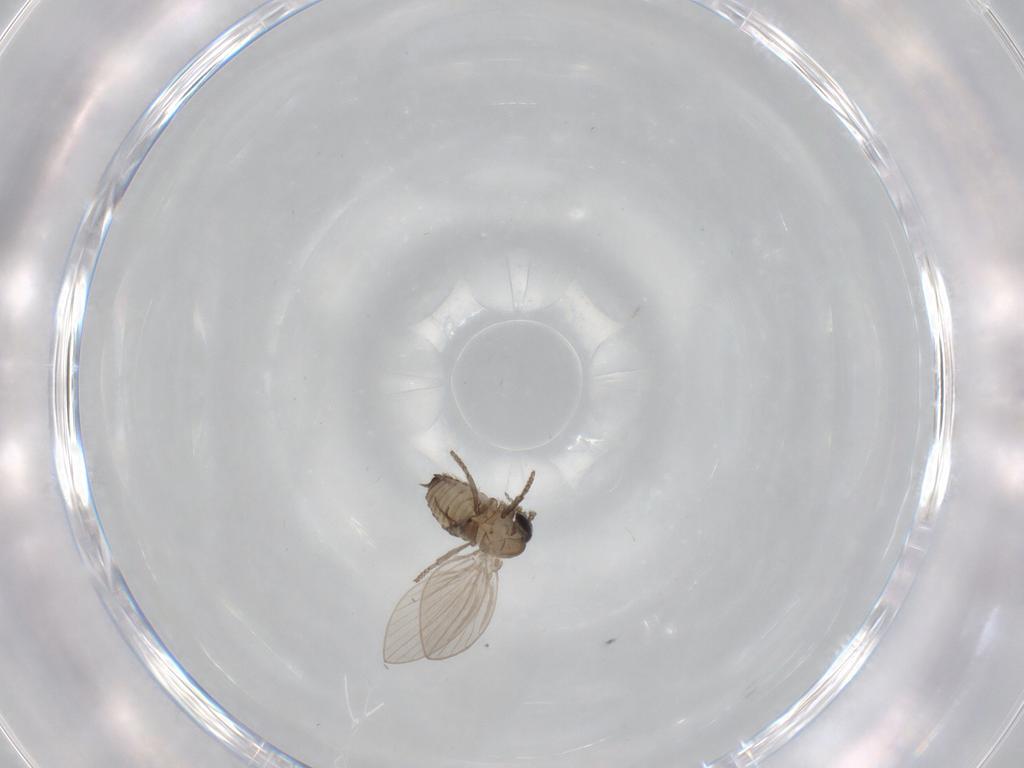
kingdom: Animalia
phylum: Arthropoda
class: Insecta
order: Diptera
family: Psychodidae
